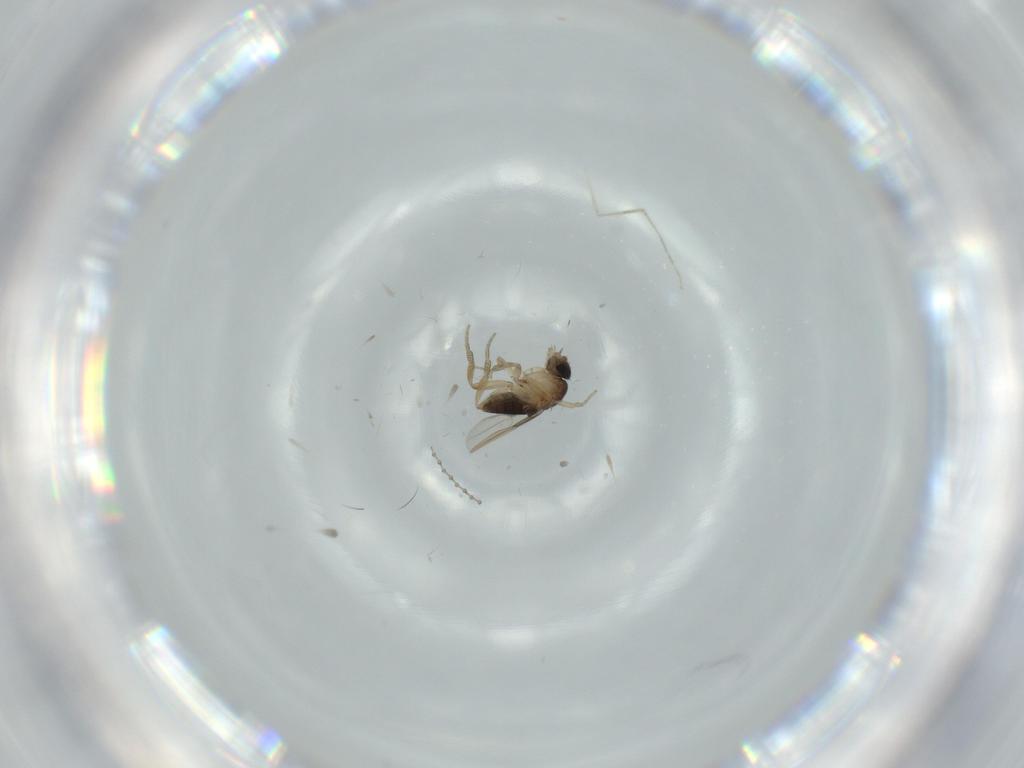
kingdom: Animalia
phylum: Arthropoda
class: Insecta
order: Diptera
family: Phoridae
